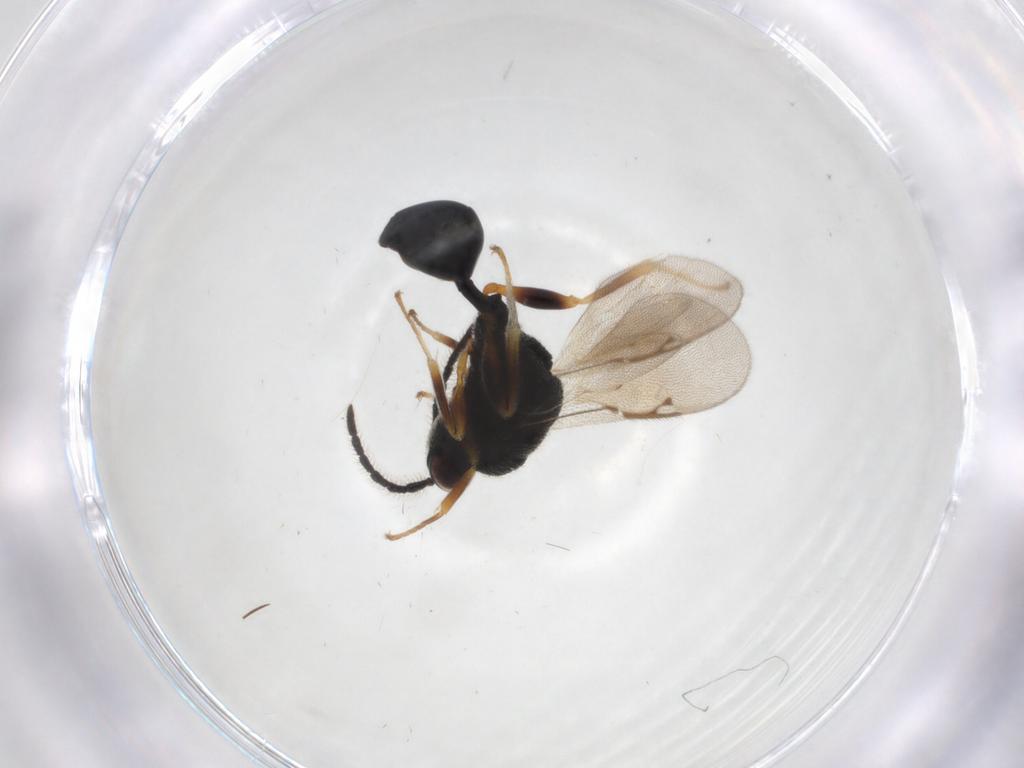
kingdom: Animalia
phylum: Arthropoda
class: Insecta
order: Hymenoptera
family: Eurytomidae
